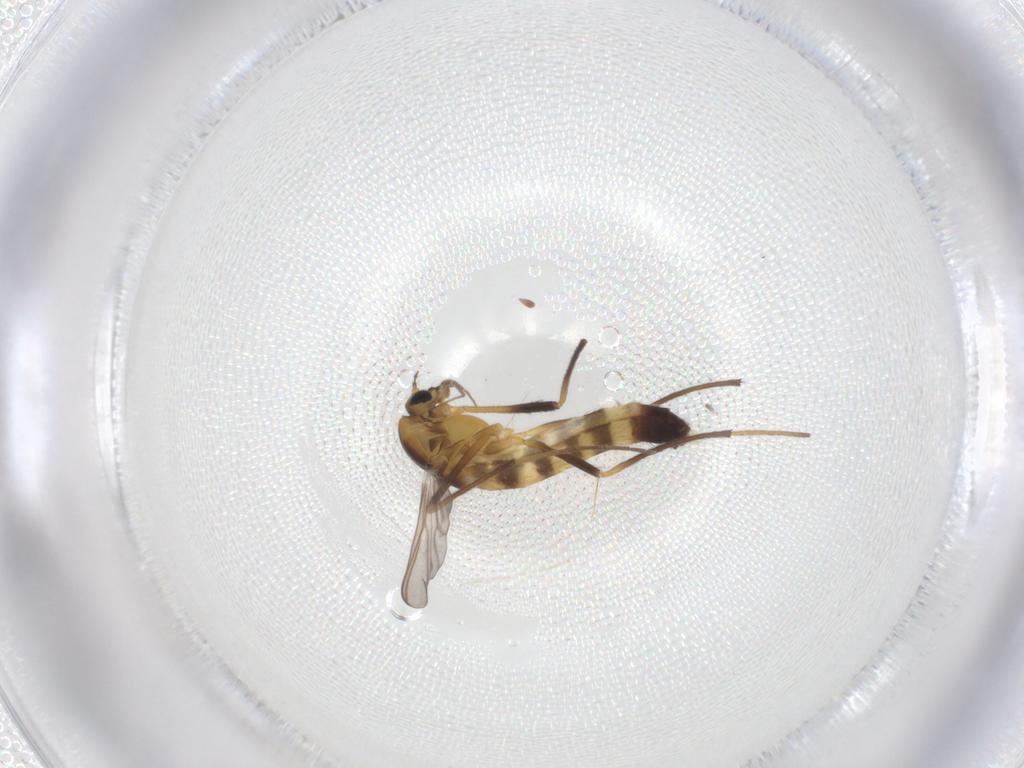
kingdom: Animalia
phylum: Arthropoda
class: Insecta
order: Diptera
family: Chironomidae
